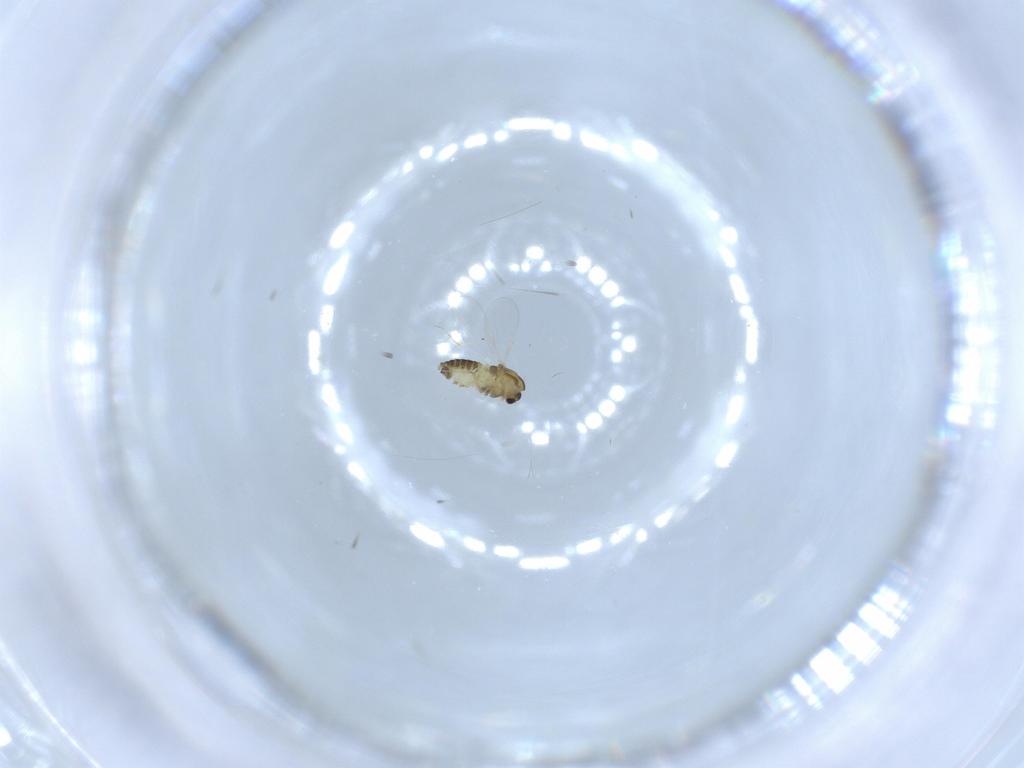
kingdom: Animalia
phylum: Arthropoda
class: Insecta
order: Diptera
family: Chironomidae
